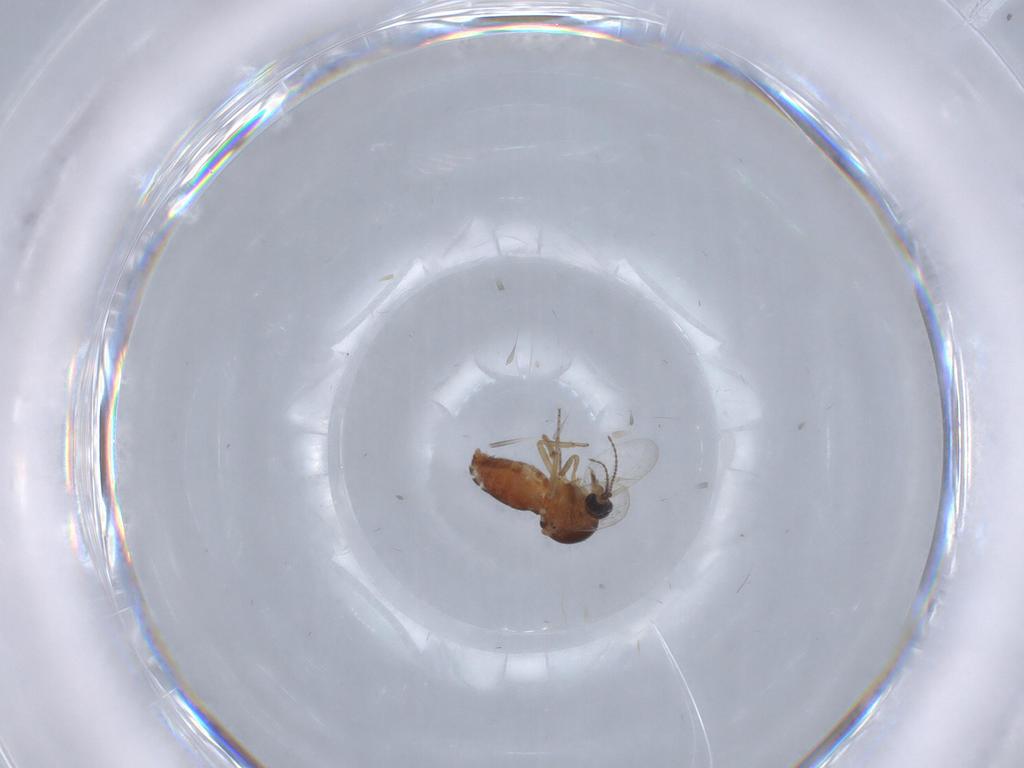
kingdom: Animalia
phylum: Arthropoda
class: Insecta
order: Diptera
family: Ceratopogonidae
